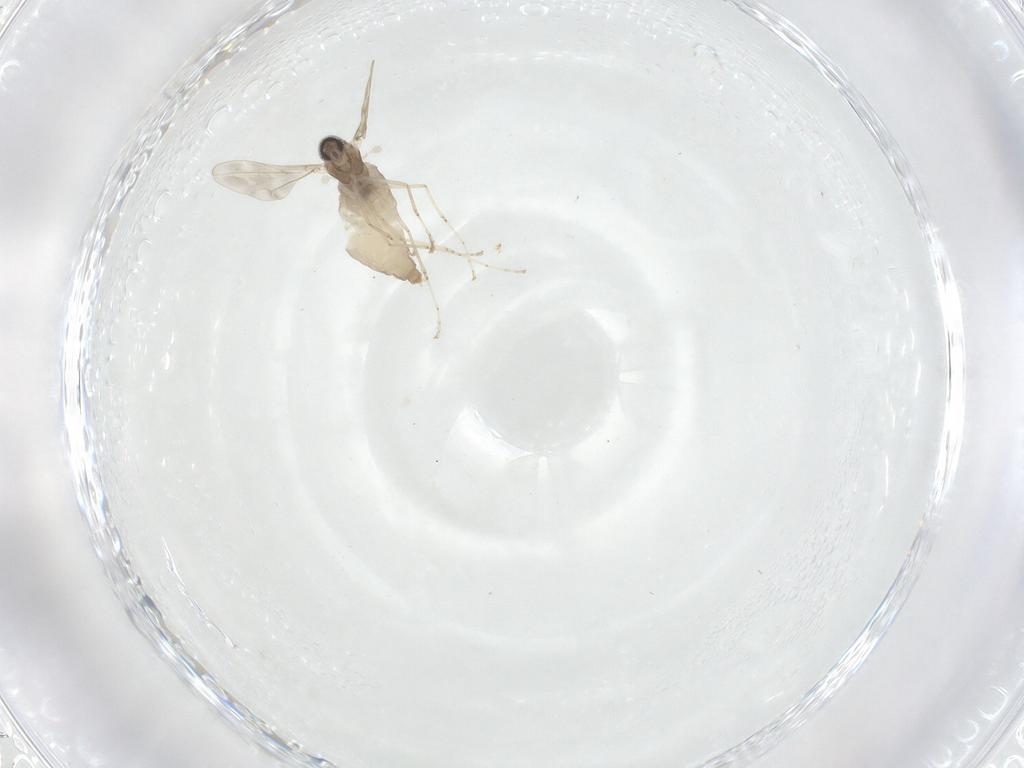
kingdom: Animalia
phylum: Arthropoda
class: Insecta
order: Diptera
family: Cecidomyiidae
